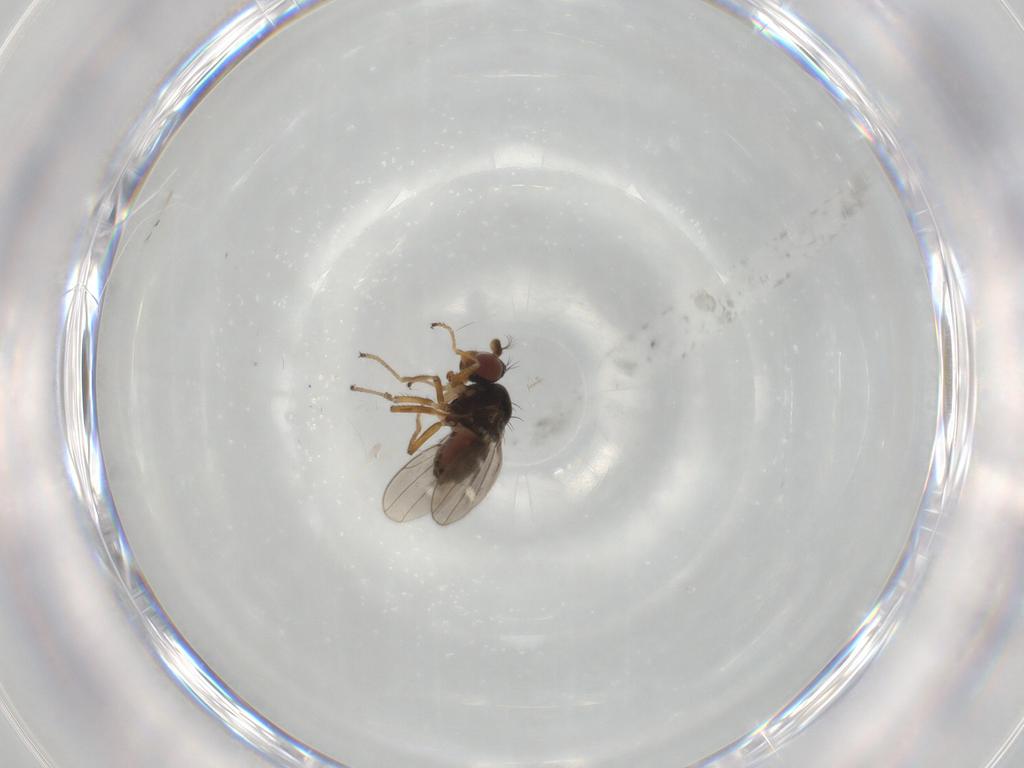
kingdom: Animalia
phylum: Arthropoda
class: Insecta
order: Diptera
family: Ephydridae
